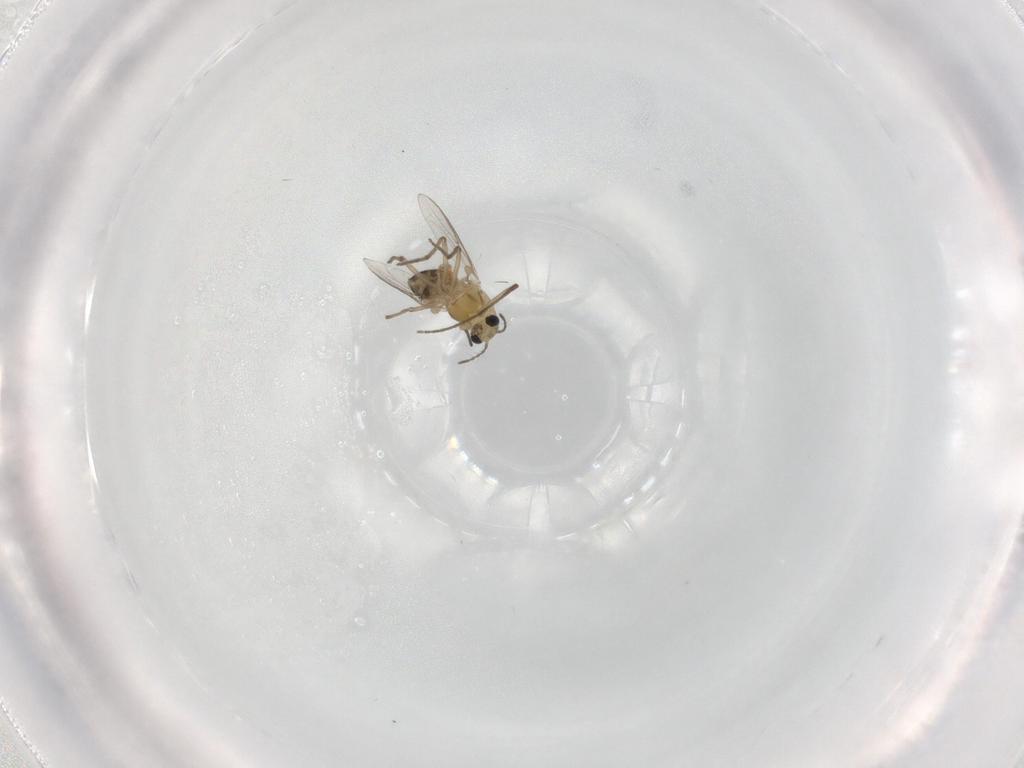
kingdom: Animalia
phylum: Arthropoda
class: Insecta
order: Diptera
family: Chironomidae
